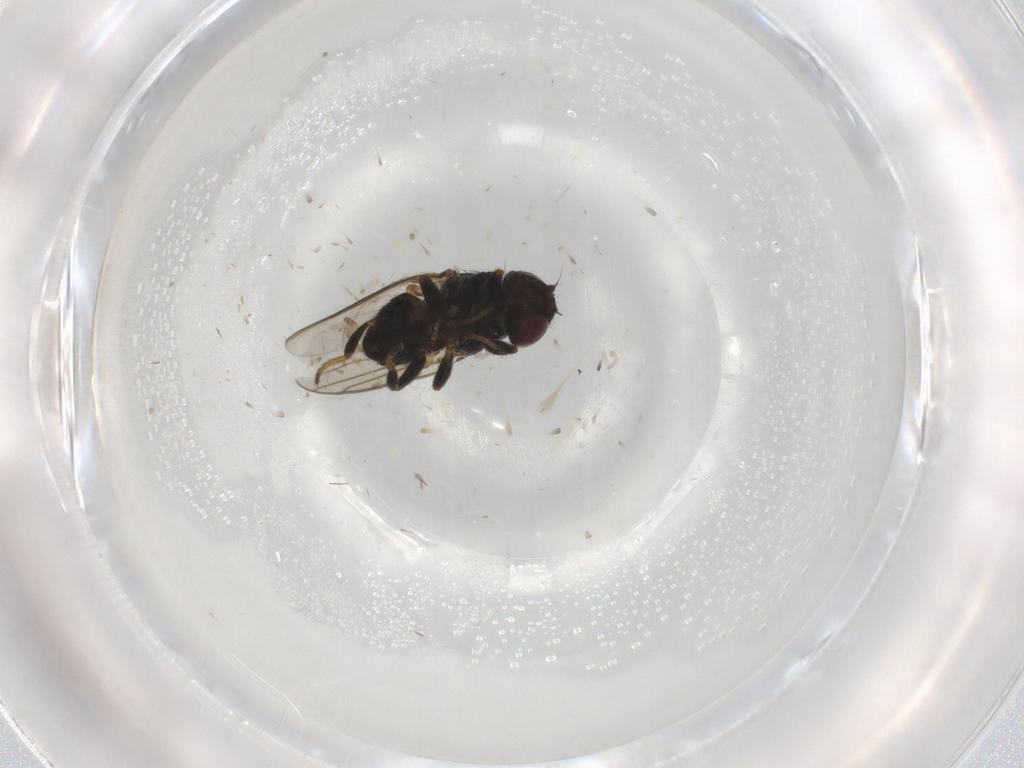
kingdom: Animalia
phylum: Arthropoda
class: Insecta
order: Diptera
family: Chloropidae
